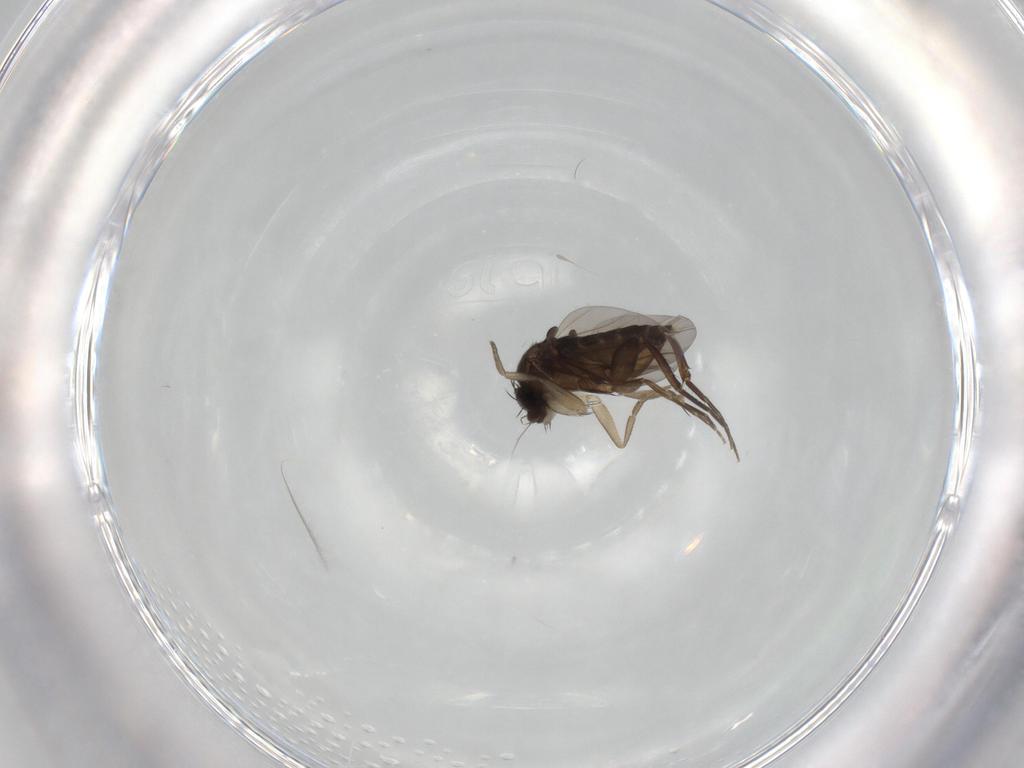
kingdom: Animalia
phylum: Arthropoda
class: Insecta
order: Diptera
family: Phoridae
